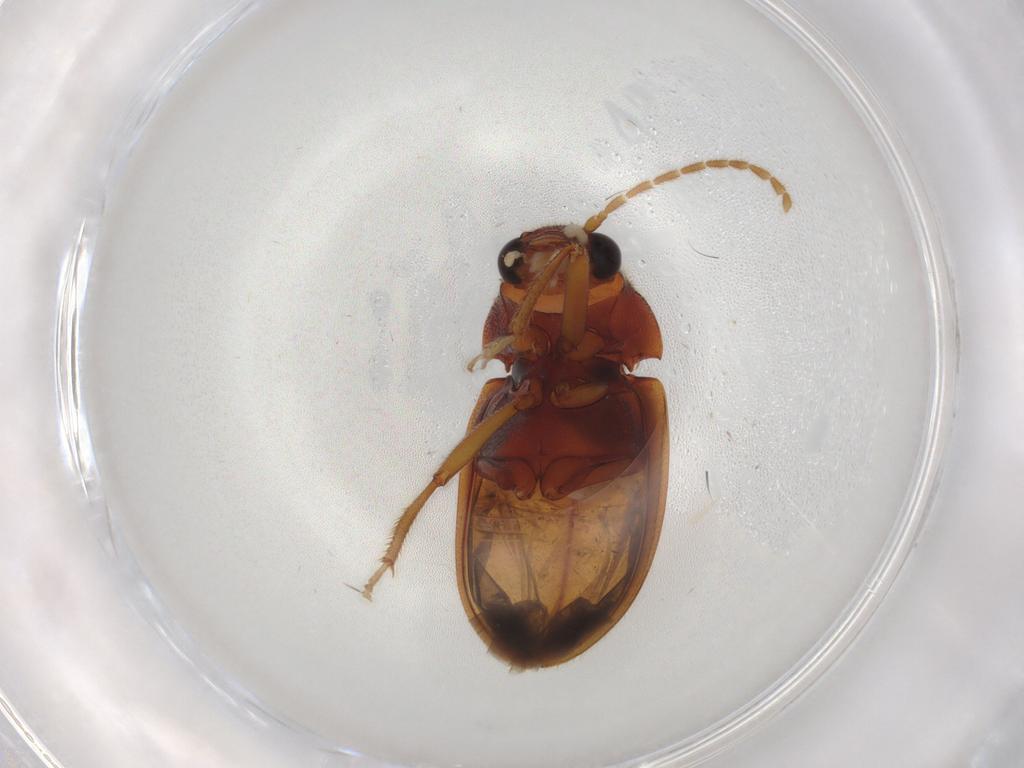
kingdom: Animalia
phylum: Arthropoda
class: Insecta
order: Coleoptera
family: Ptilodactylidae
